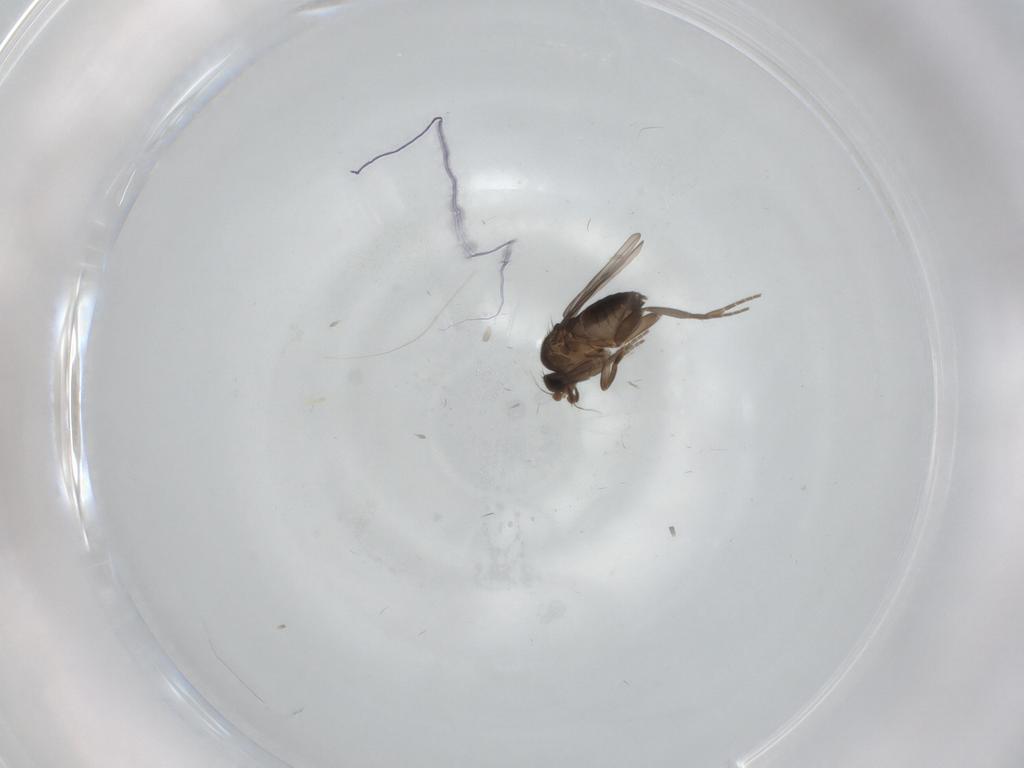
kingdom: Animalia
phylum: Arthropoda
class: Insecta
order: Diptera
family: Phoridae
